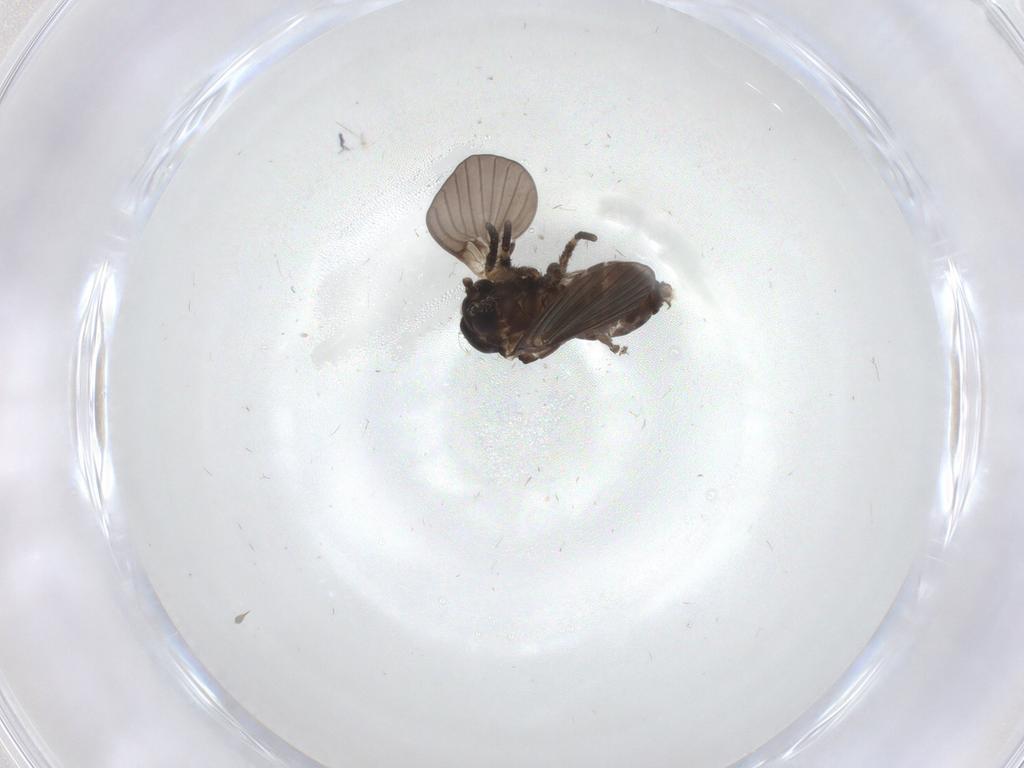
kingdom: Animalia
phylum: Arthropoda
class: Insecta
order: Diptera
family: Psychodidae
